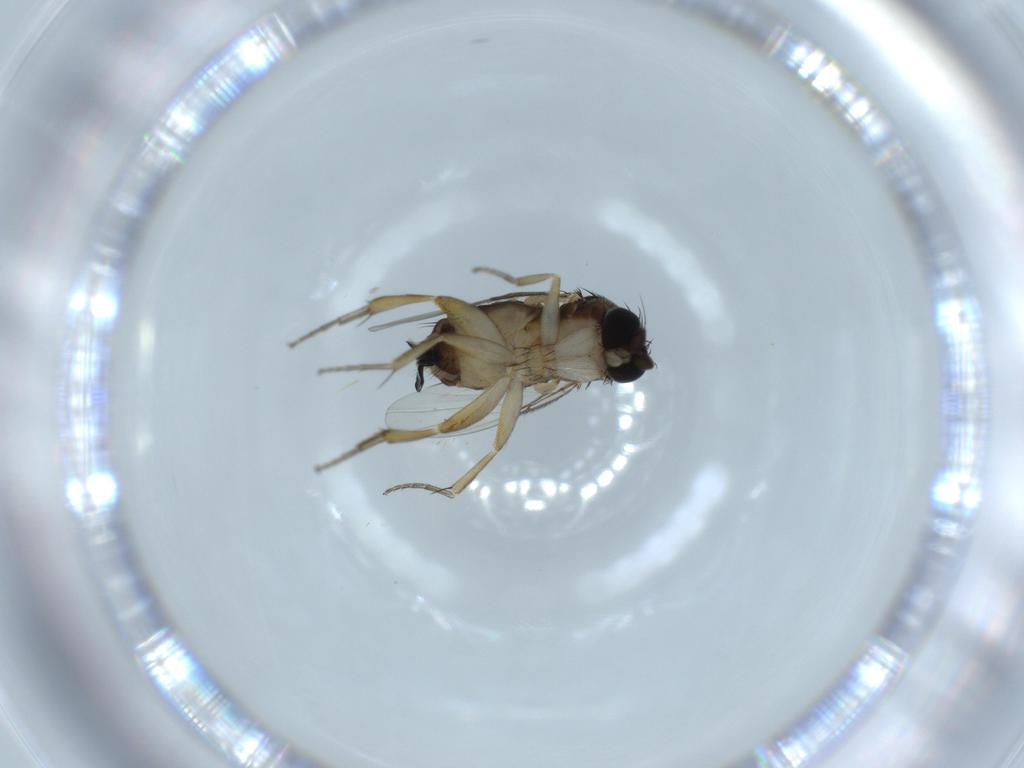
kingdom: Animalia
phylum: Arthropoda
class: Insecta
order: Diptera
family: Phoridae
